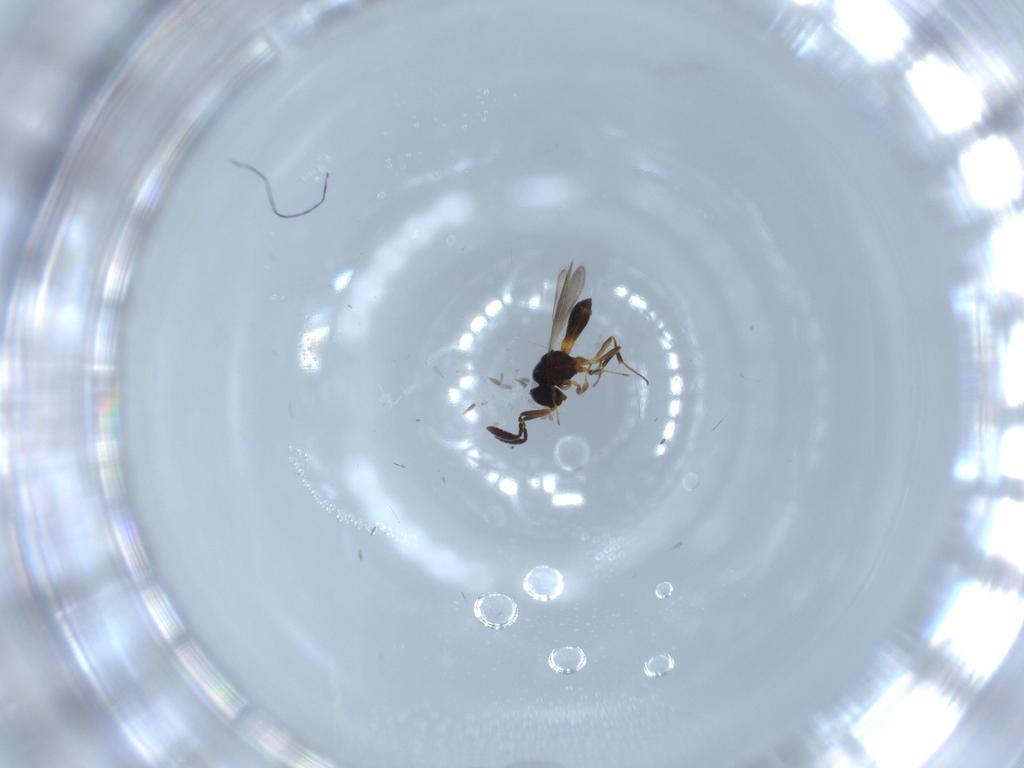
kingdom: Animalia
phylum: Arthropoda
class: Insecta
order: Hymenoptera
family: Scelionidae
